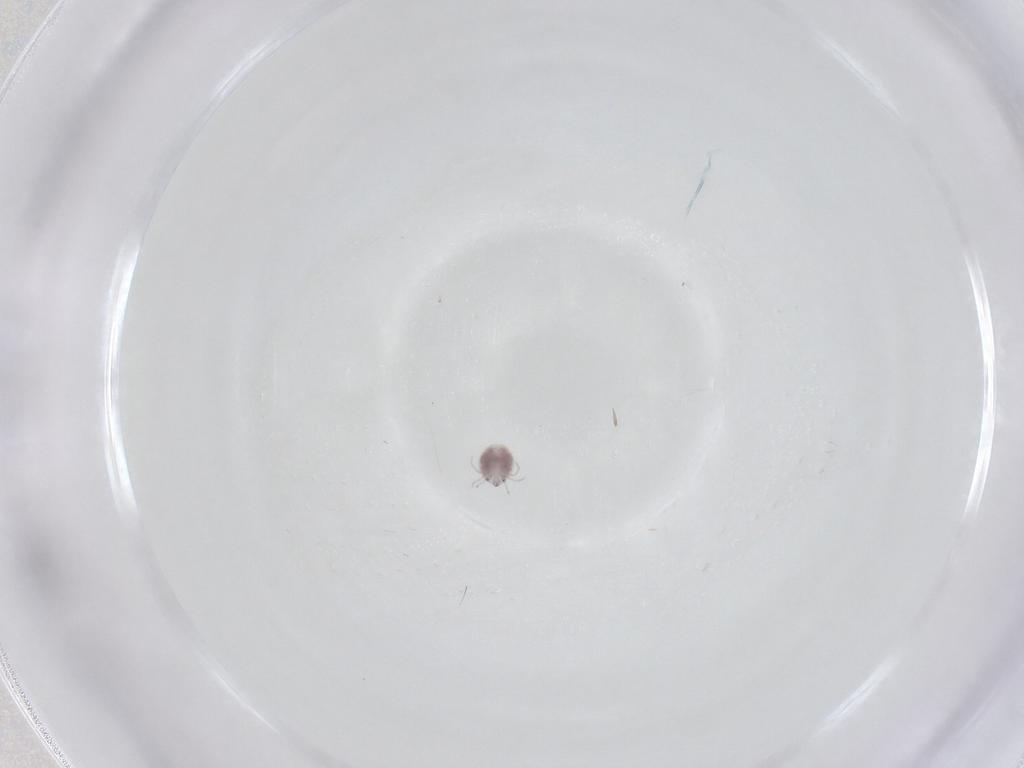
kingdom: Animalia
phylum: Arthropoda
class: Arachnida
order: Trombidiformes
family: Pionidae
